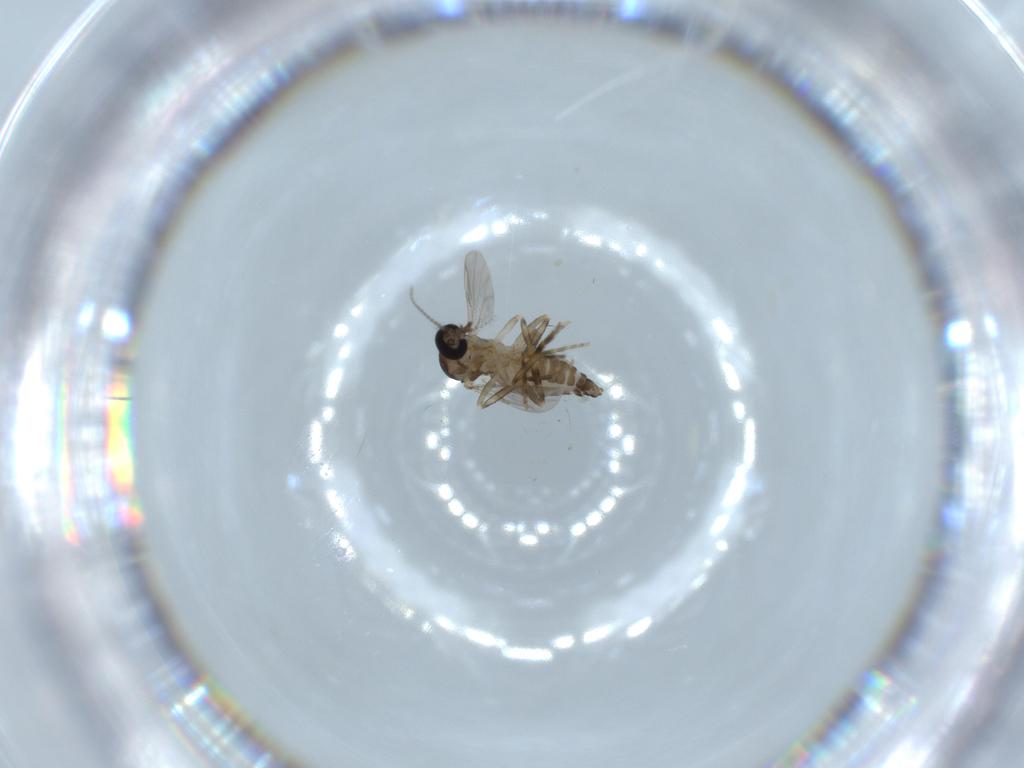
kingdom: Animalia
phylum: Arthropoda
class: Insecta
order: Diptera
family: Ceratopogonidae
